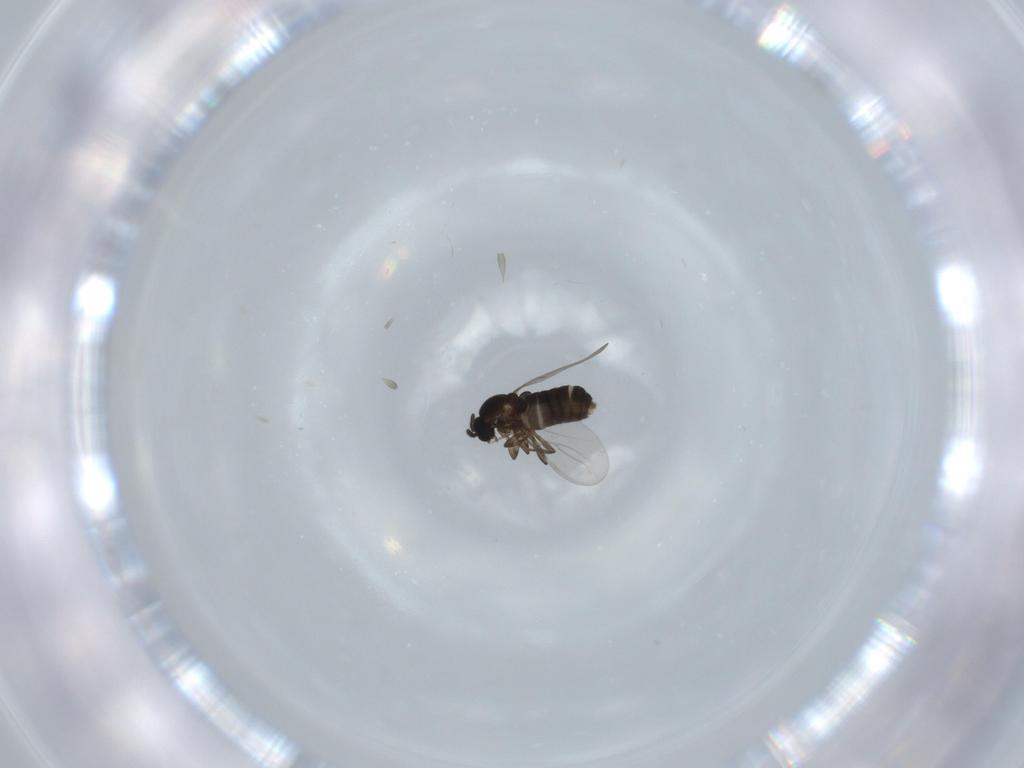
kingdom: Animalia
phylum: Arthropoda
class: Insecta
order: Diptera
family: Scatopsidae
